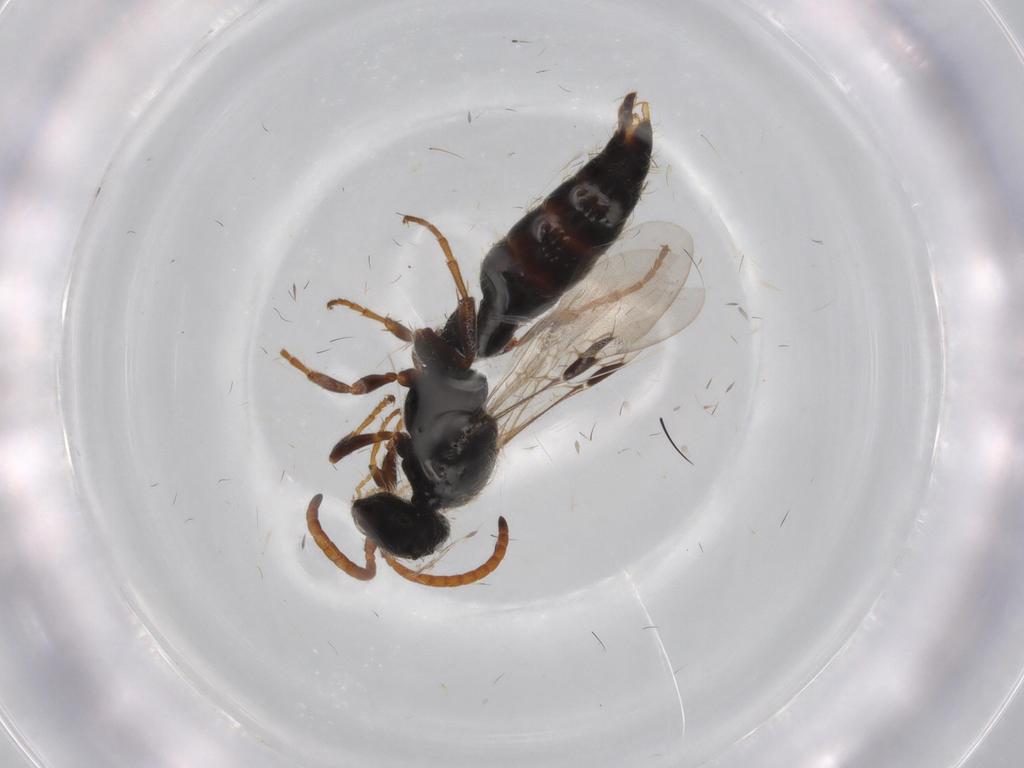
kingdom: Animalia
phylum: Arthropoda
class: Insecta
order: Hymenoptera
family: Tiphiidae
